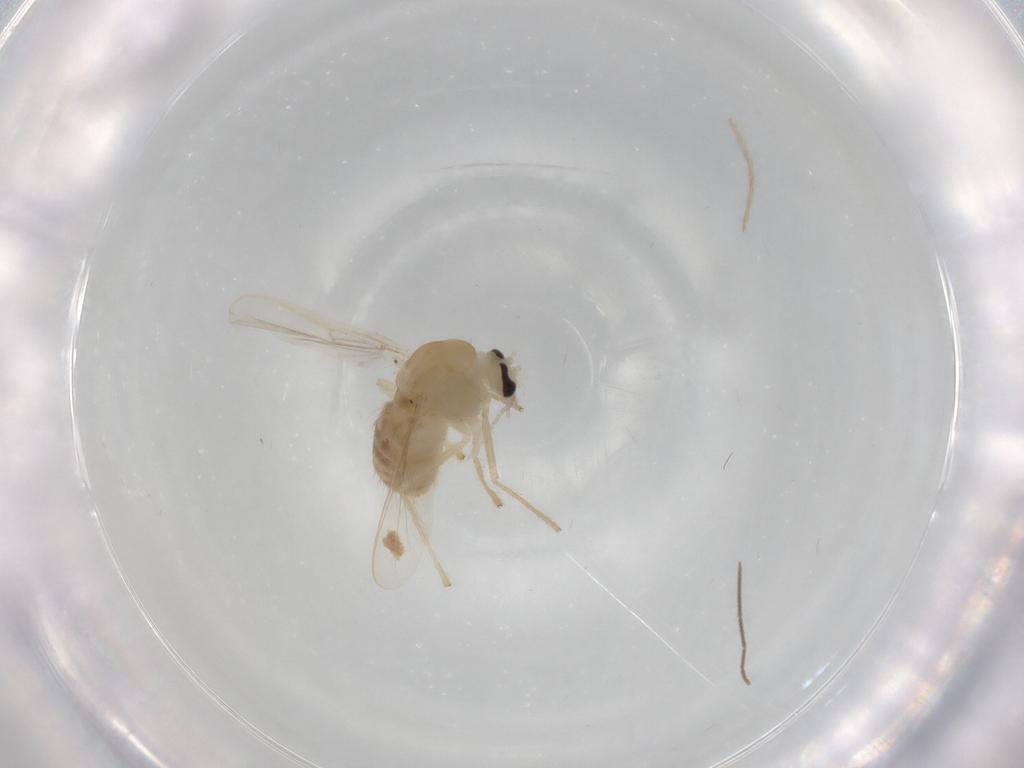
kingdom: Animalia
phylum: Arthropoda
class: Insecta
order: Diptera
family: Chironomidae
